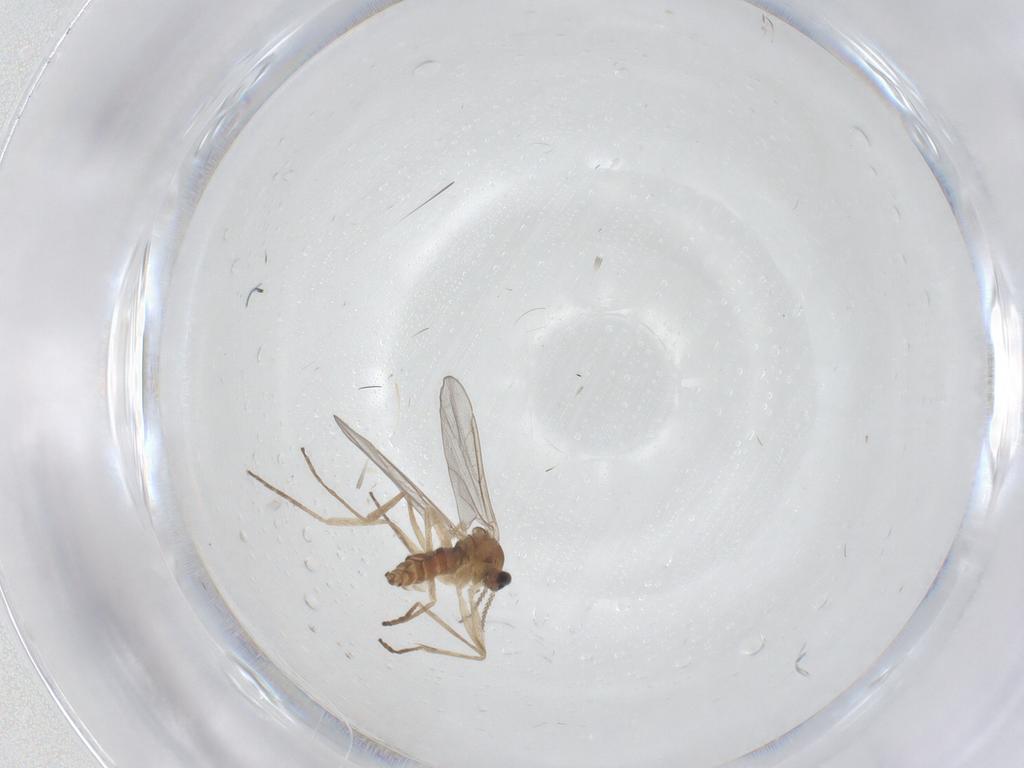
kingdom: Animalia
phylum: Arthropoda
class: Insecta
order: Diptera
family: Cecidomyiidae
